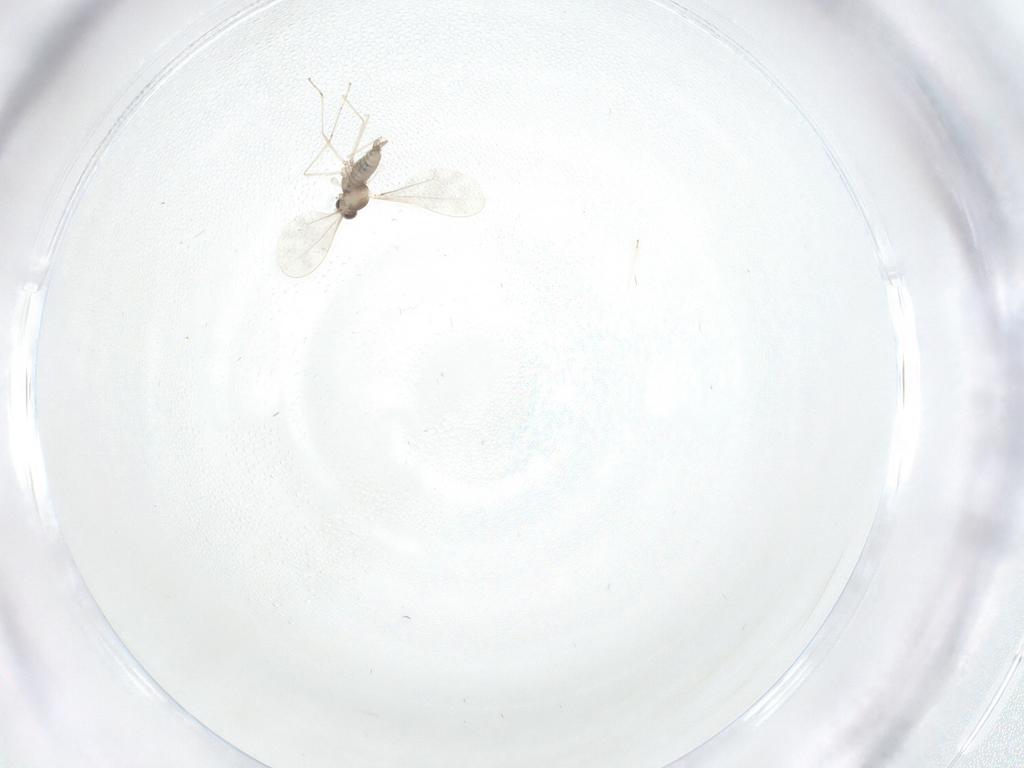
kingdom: Animalia
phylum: Arthropoda
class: Insecta
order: Diptera
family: Cecidomyiidae
